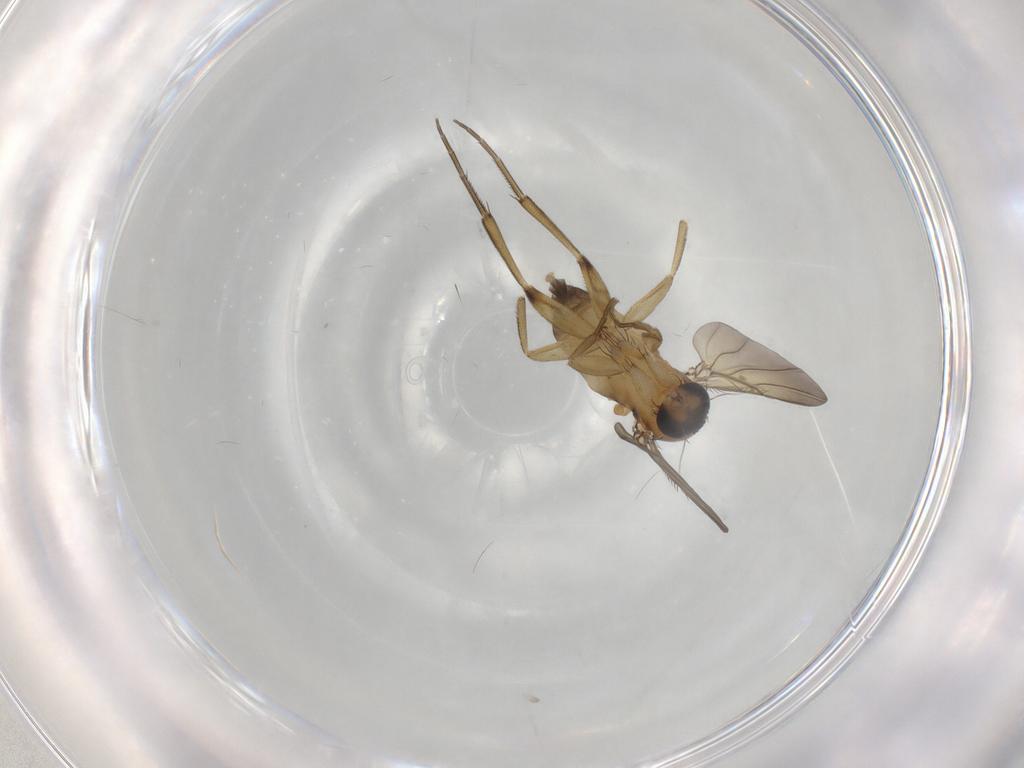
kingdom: Animalia
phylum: Arthropoda
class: Insecta
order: Diptera
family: Phoridae
